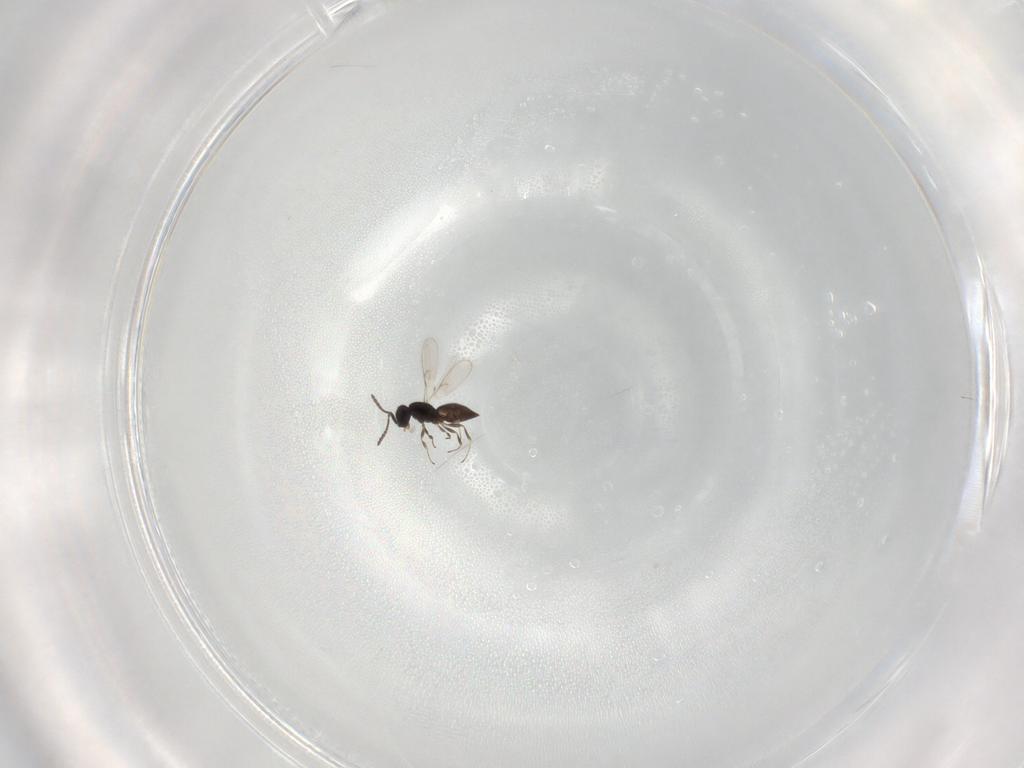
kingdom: Animalia
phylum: Arthropoda
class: Insecta
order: Hymenoptera
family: Scelionidae
